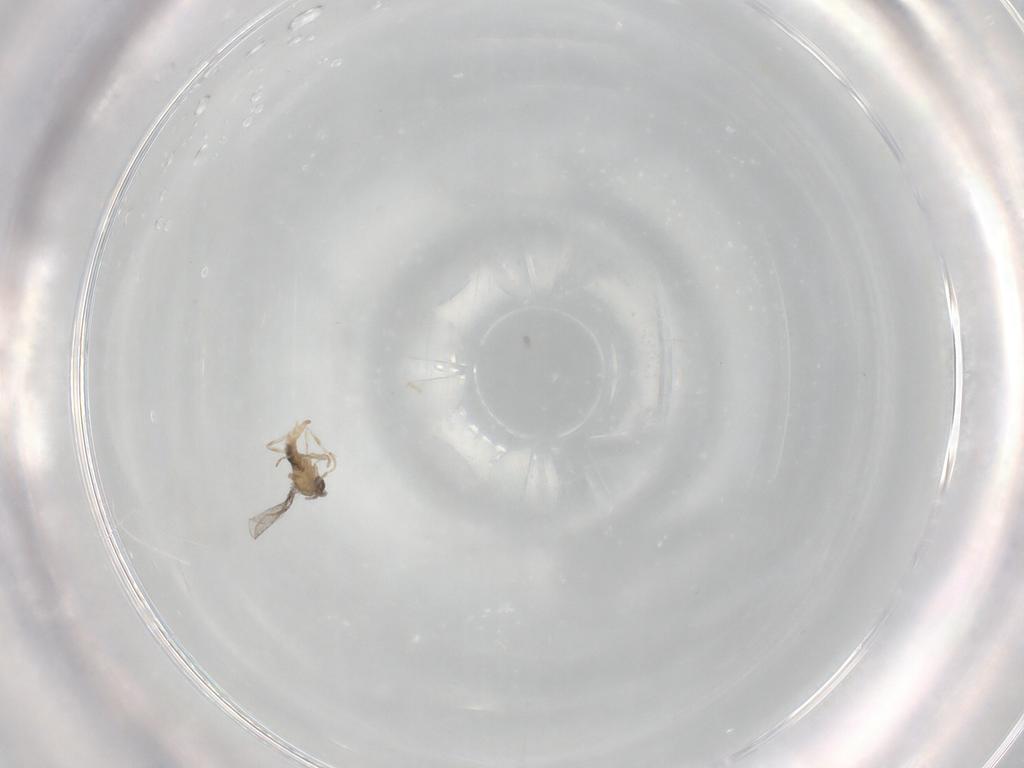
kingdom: Animalia
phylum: Arthropoda
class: Insecta
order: Diptera
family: Cecidomyiidae
